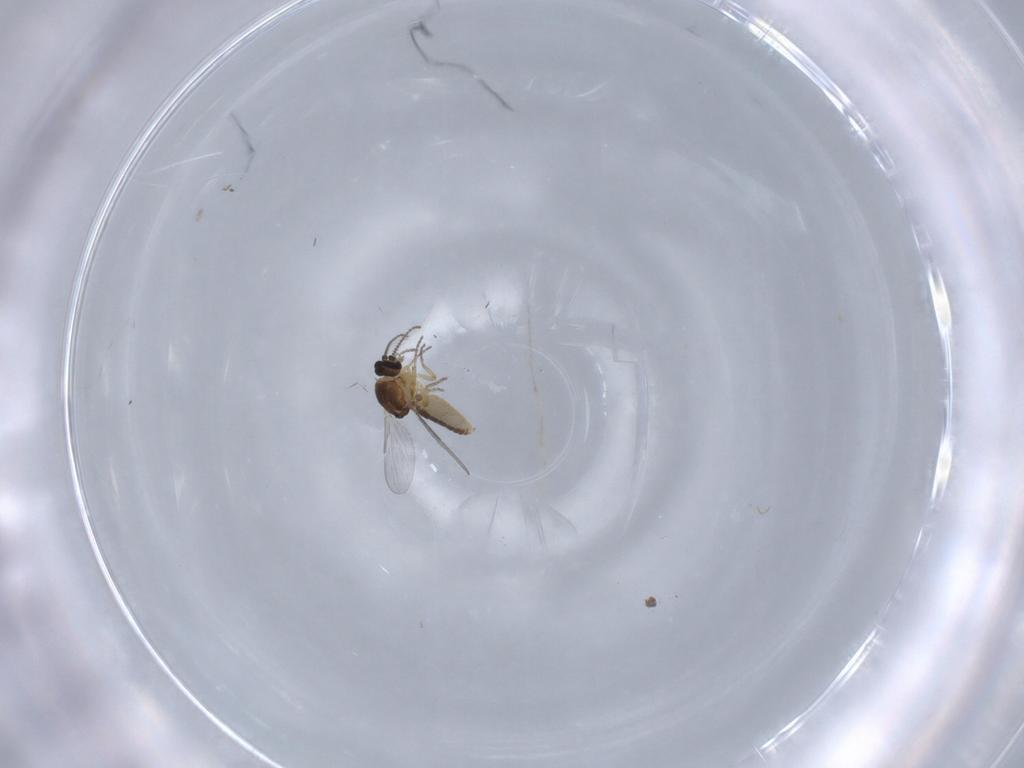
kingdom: Animalia
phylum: Arthropoda
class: Insecta
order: Diptera
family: Ceratopogonidae
